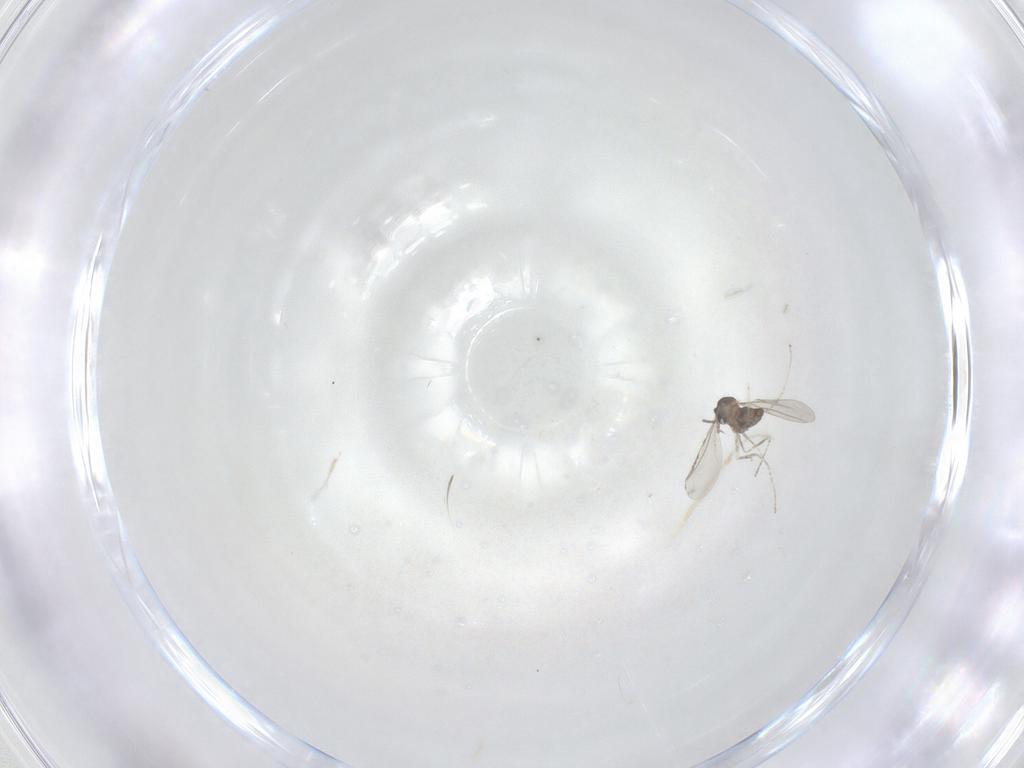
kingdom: Animalia
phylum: Arthropoda
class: Insecta
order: Diptera
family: Cecidomyiidae
